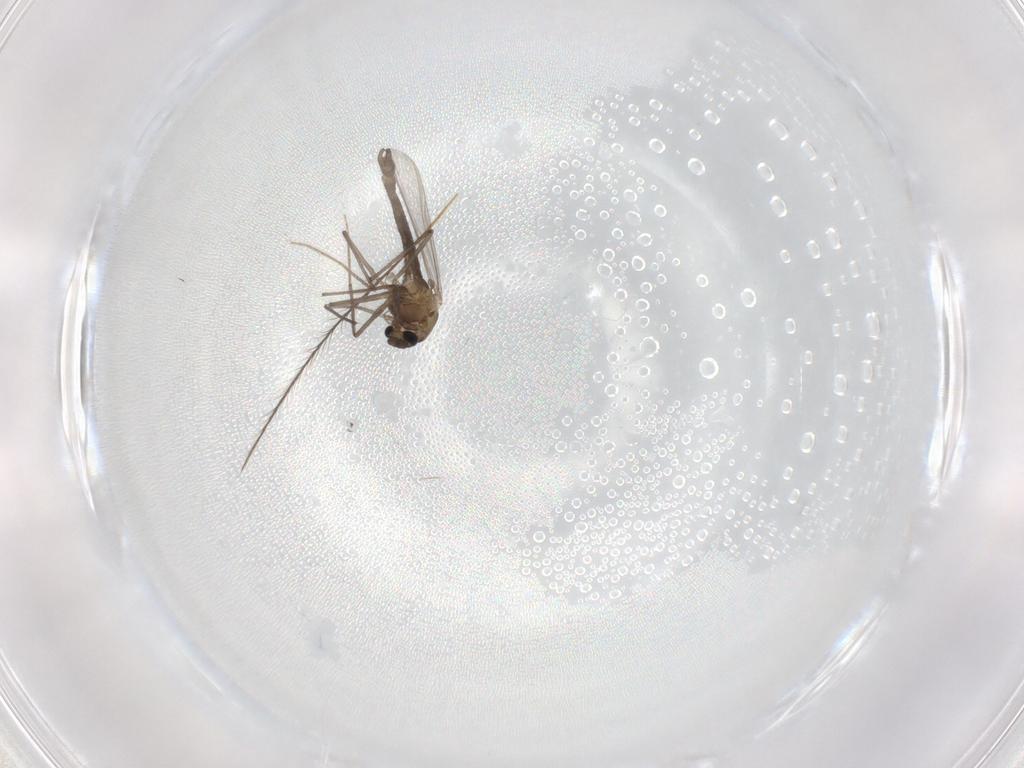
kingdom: Animalia
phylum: Arthropoda
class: Insecta
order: Diptera
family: Chironomidae
